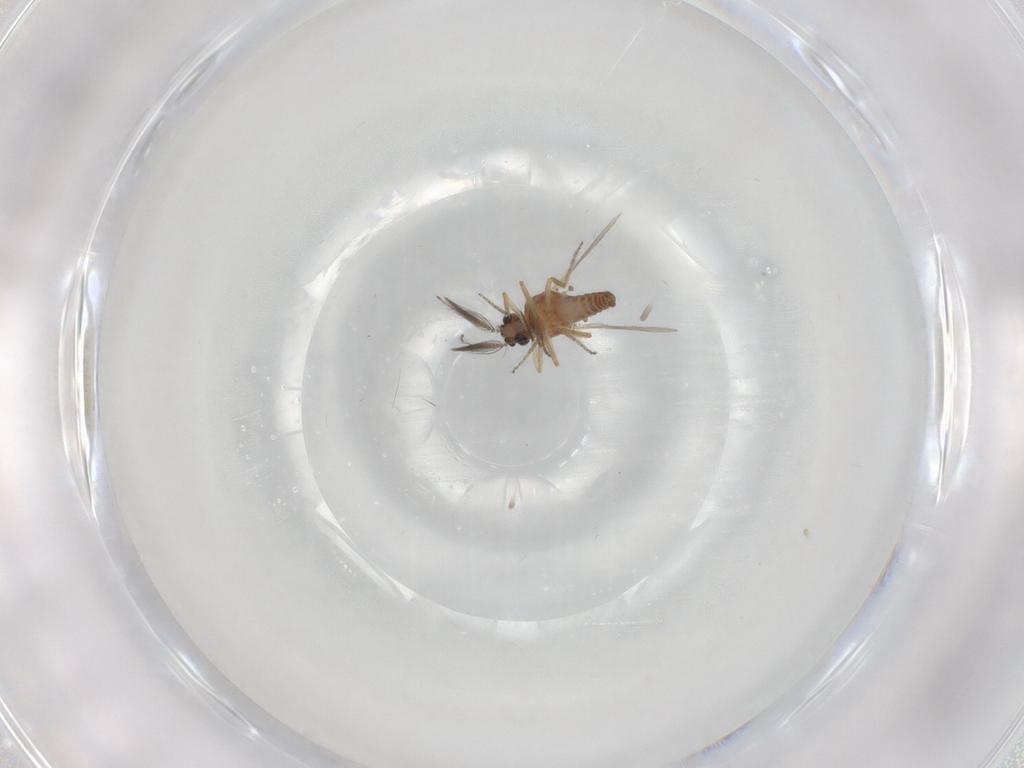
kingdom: Animalia
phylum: Arthropoda
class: Insecta
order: Diptera
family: Ceratopogonidae
